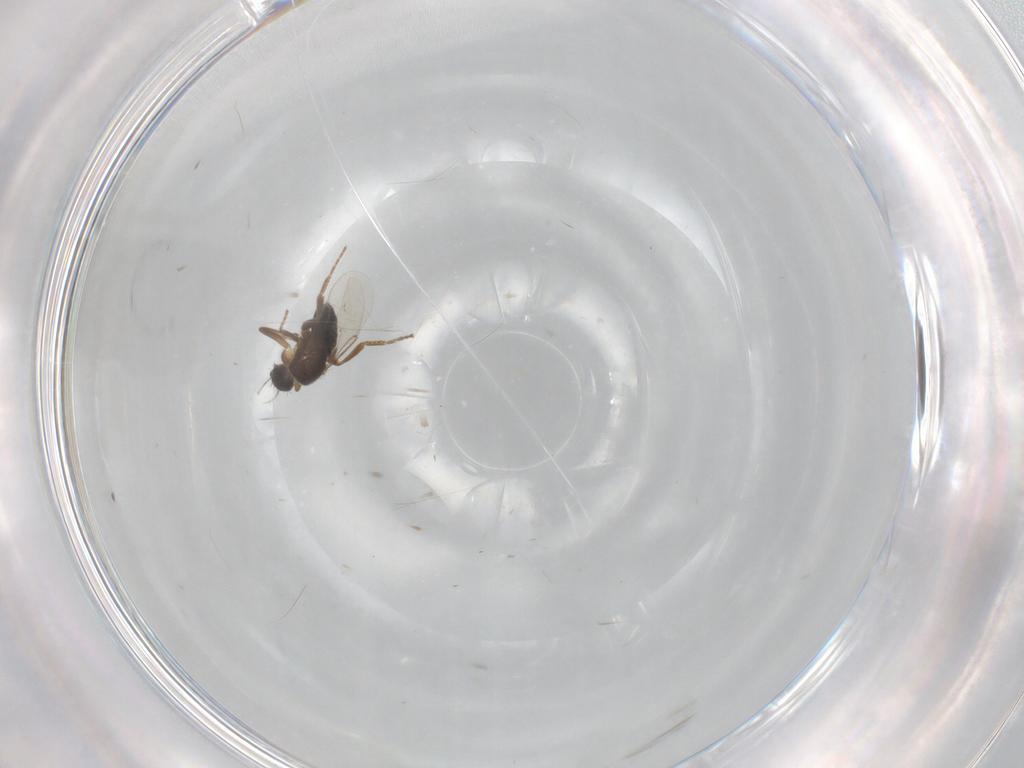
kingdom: Animalia
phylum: Arthropoda
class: Insecta
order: Diptera
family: Phoridae
